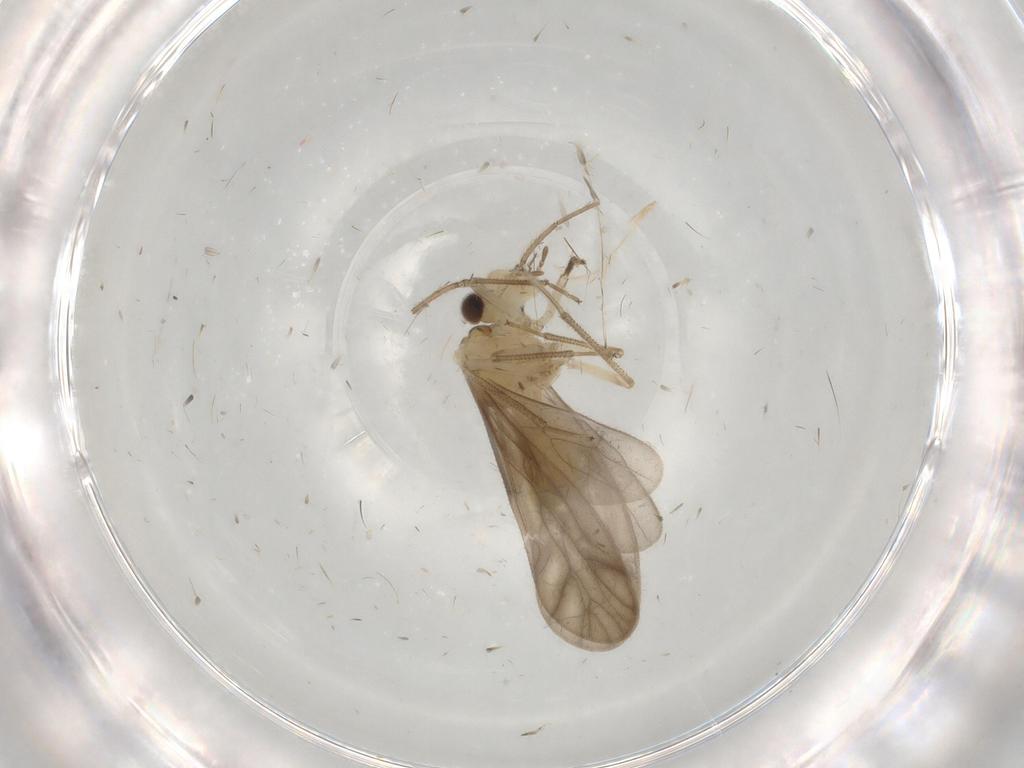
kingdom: Animalia
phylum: Arthropoda
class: Insecta
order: Psocodea
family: Caeciliusidae
